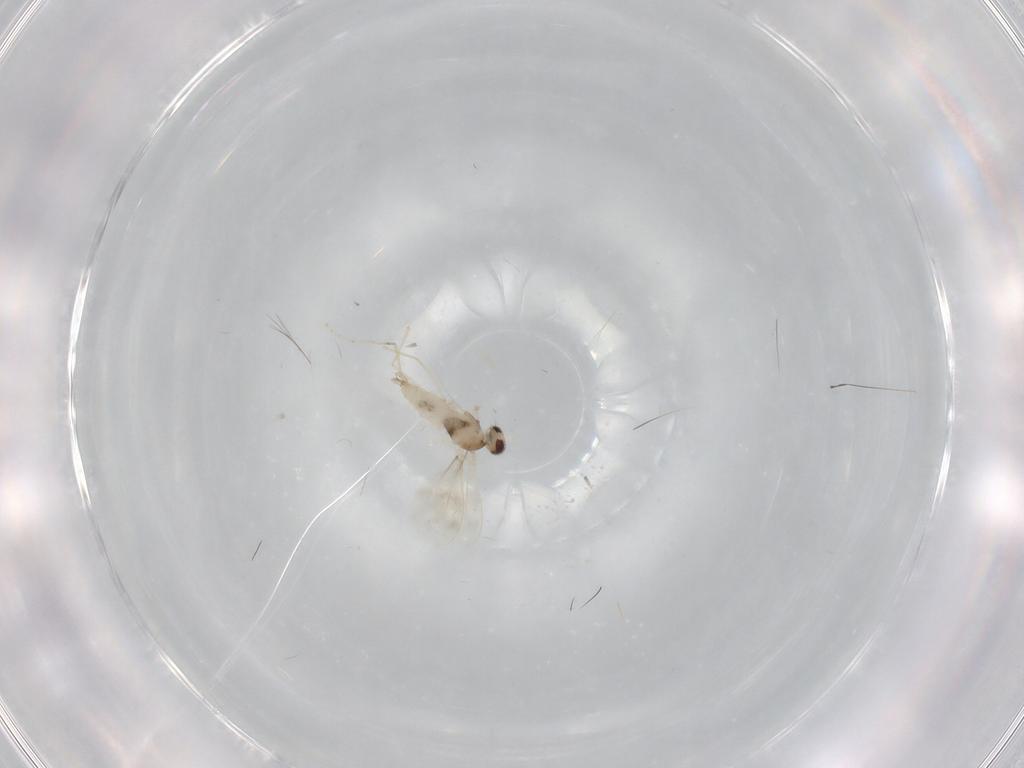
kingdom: Animalia
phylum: Arthropoda
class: Insecta
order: Diptera
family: Cecidomyiidae
